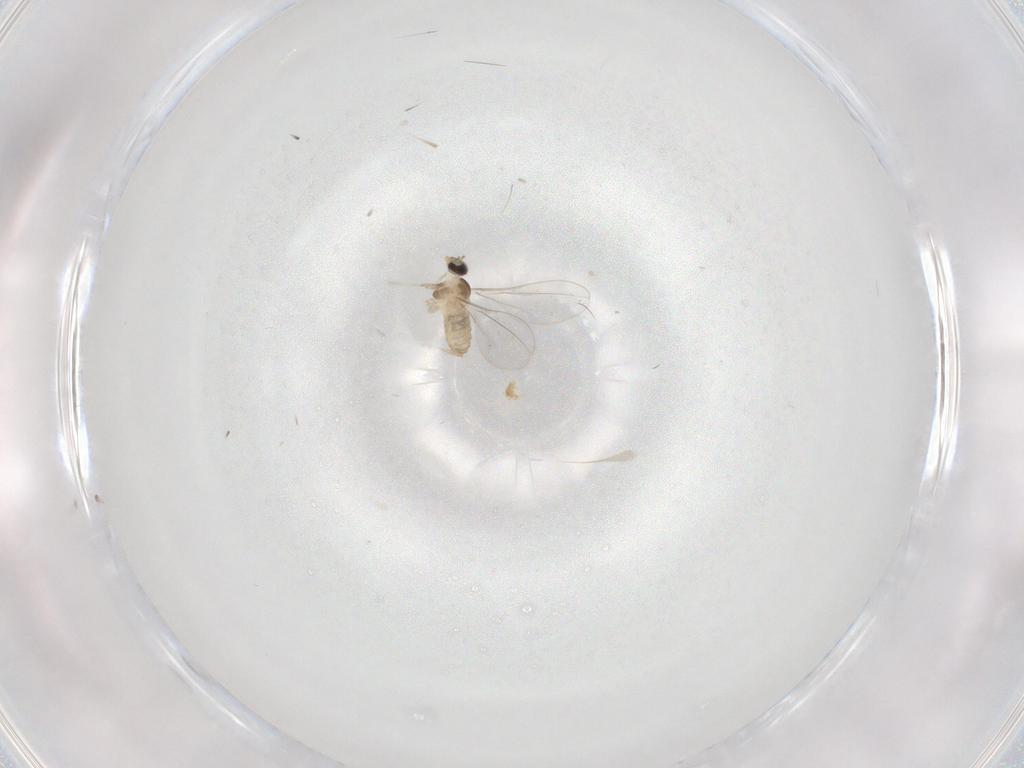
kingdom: Animalia
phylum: Arthropoda
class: Insecta
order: Diptera
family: Cecidomyiidae
